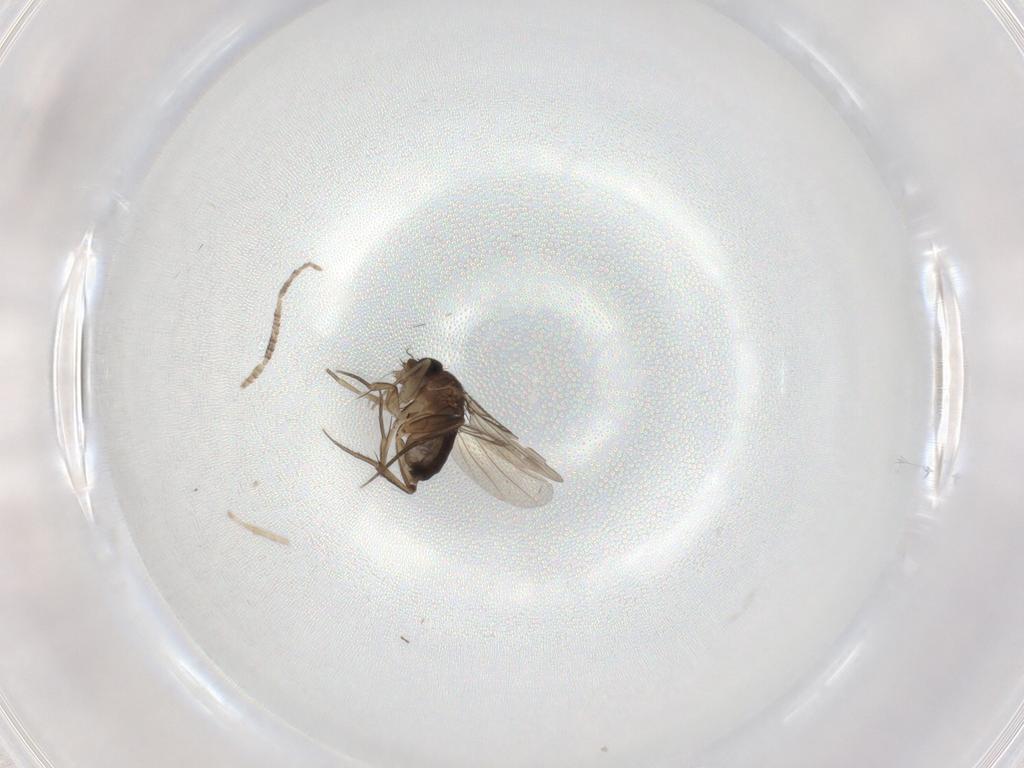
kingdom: Animalia
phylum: Arthropoda
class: Insecta
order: Diptera
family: Phoridae
